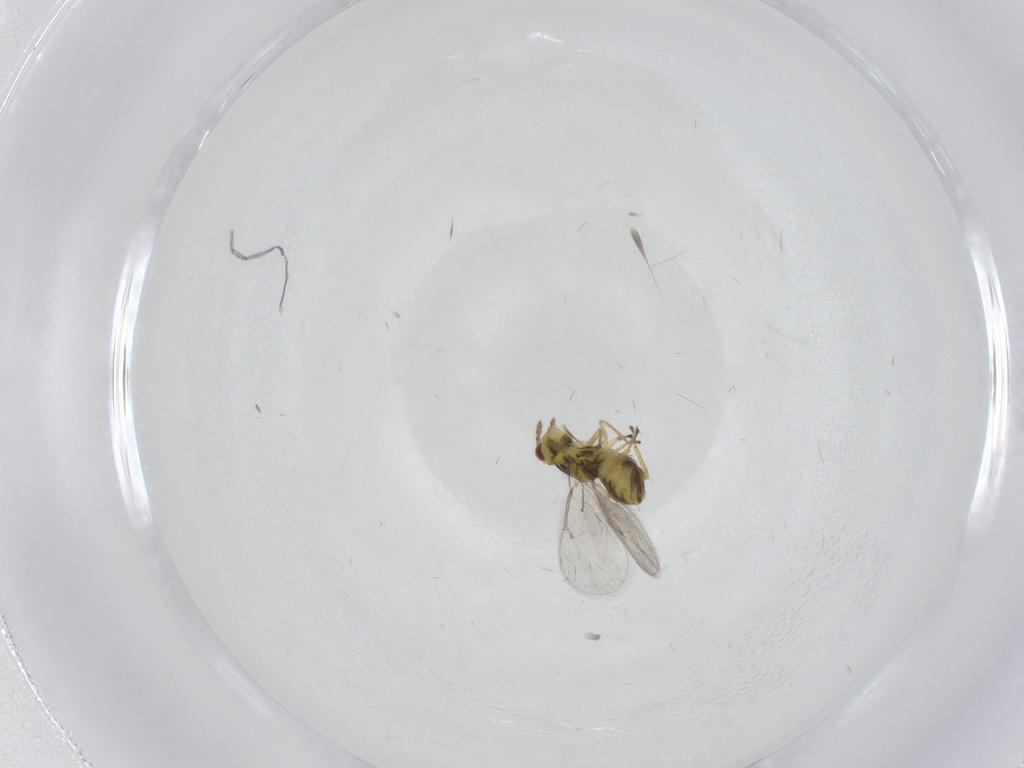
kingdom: Animalia
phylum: Arthropoda
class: Insecta
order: Hymenoptera
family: Eulophidae
